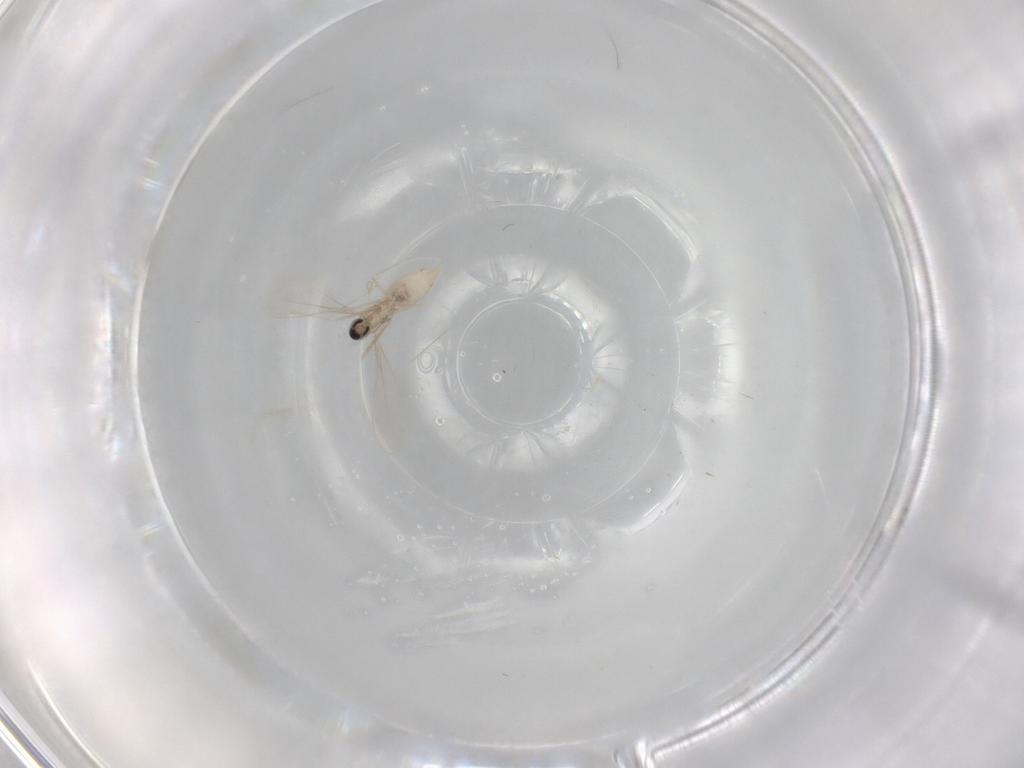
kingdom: Animalia
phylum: Arthropoda
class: Insecta
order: Diptera
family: Cecidomyiidae
